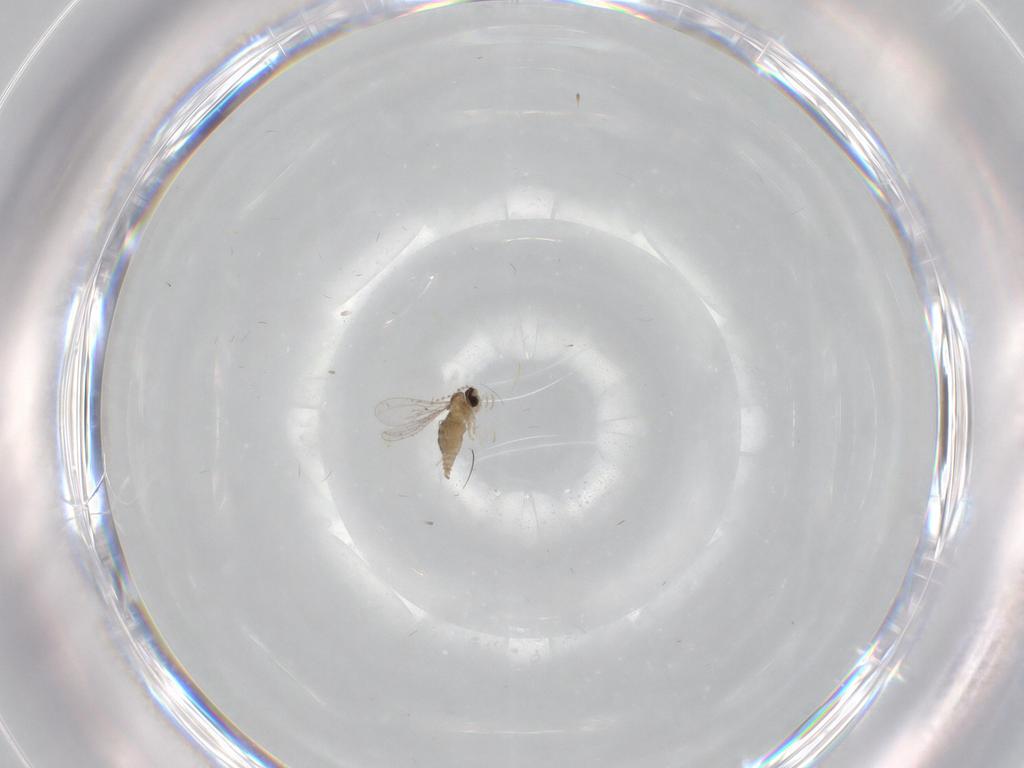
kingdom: Animalia
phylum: Arthropoda
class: Insecta
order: Diptera
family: Cecidomyiidae
